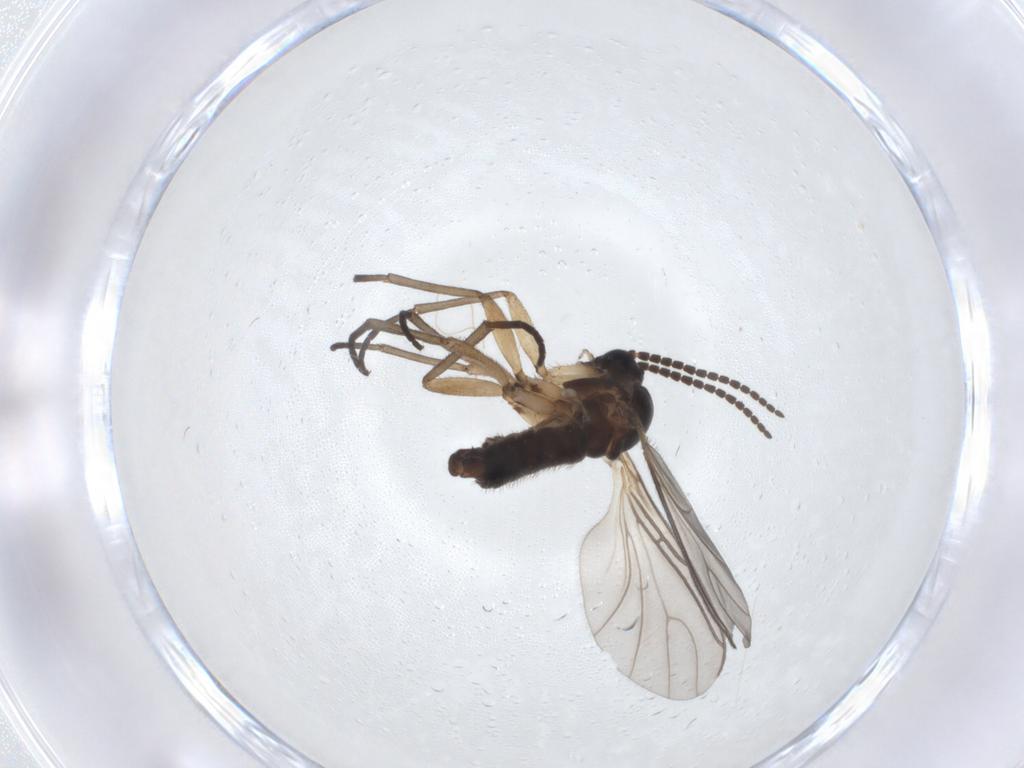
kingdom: Animalia
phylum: Arthropoda
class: Insecta
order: Diptera
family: Sciaridae
